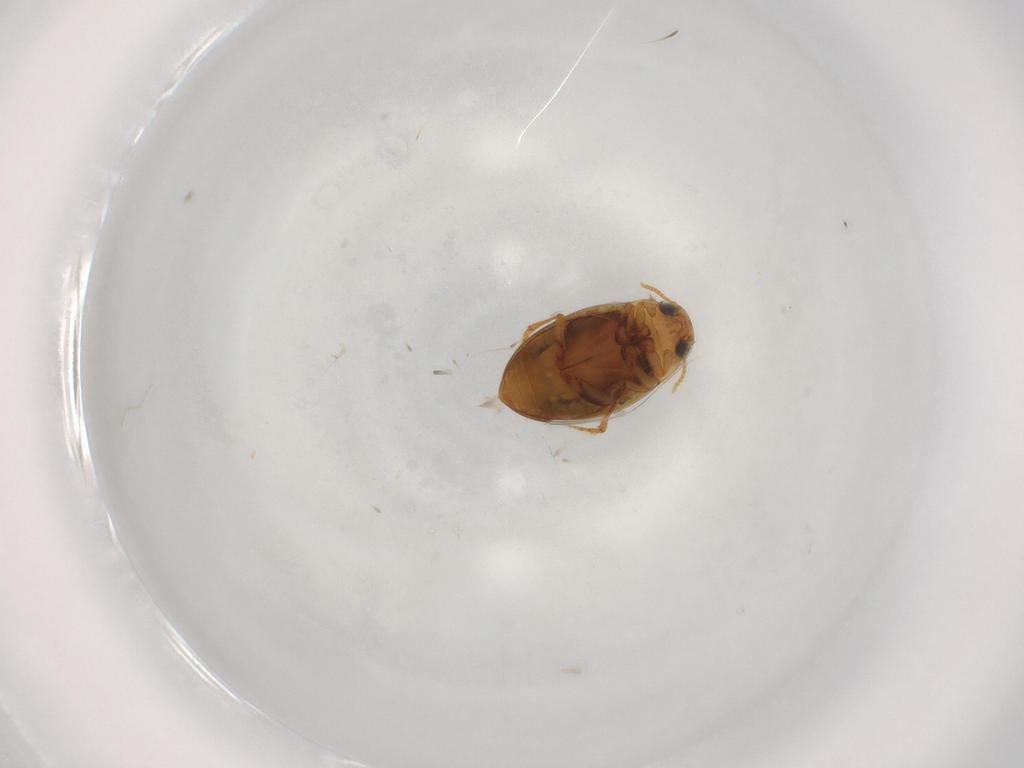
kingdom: Animalia
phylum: Arthropoda
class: Insecta
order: Coleoptera
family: Dytiscidae
